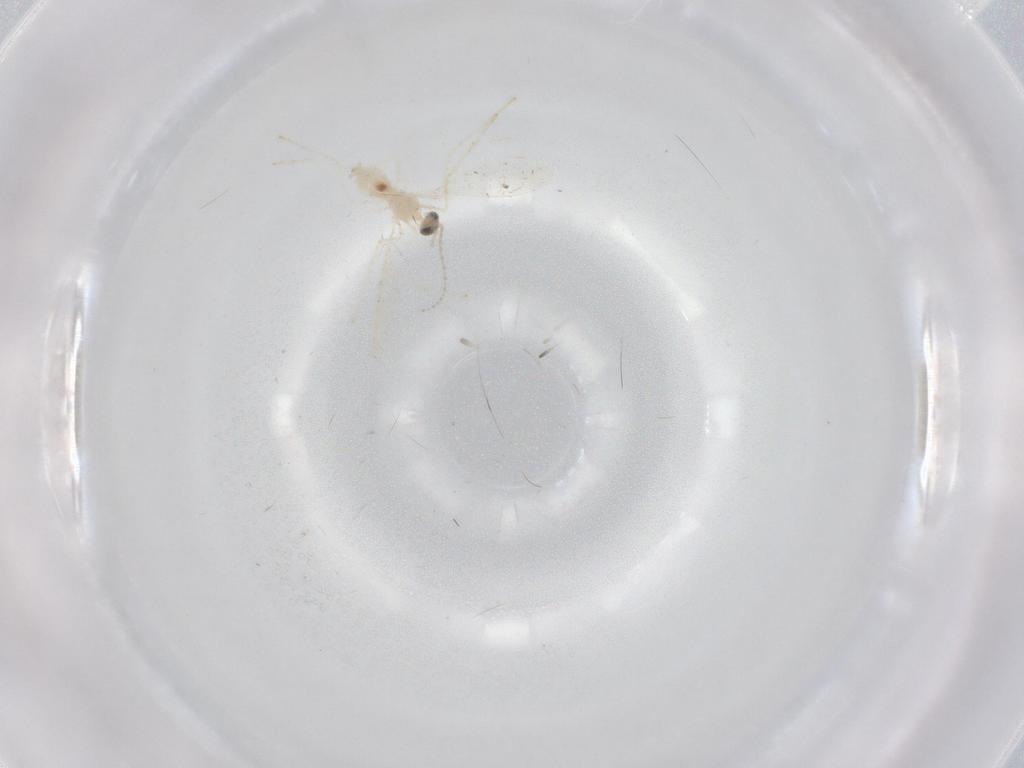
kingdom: Animalia
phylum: Arthropoda
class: Insecta
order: Diptera
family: Cecidomyiidae
